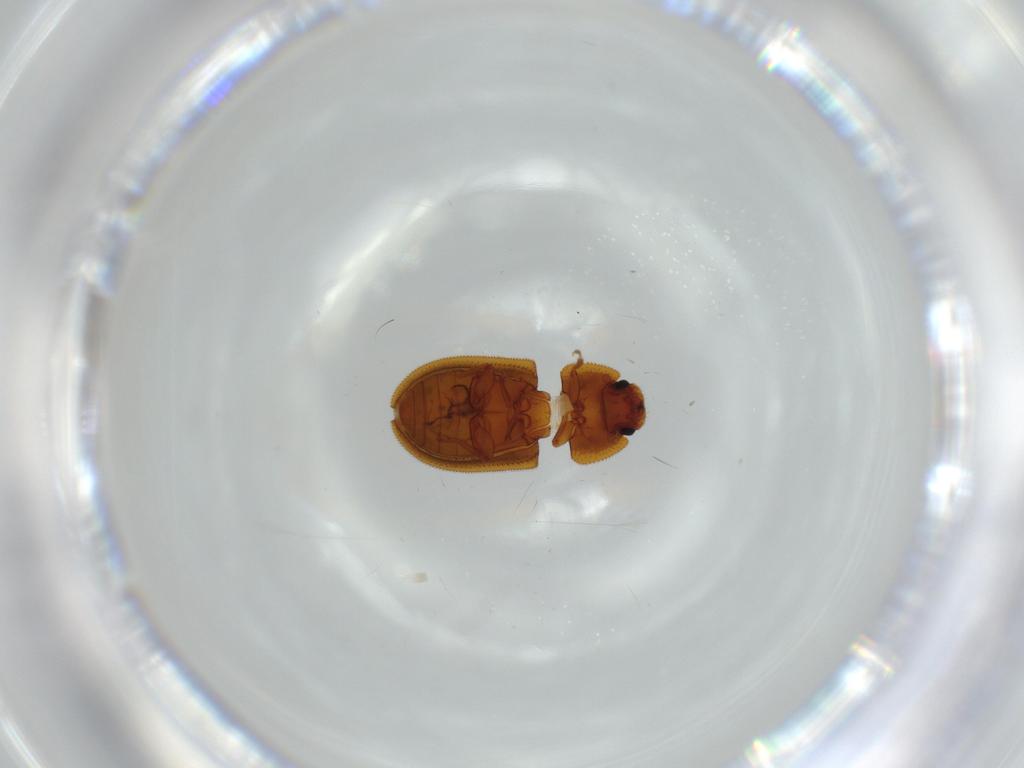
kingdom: Animalia
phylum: Arthropoda
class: Insecta
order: Coleoptera
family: Zopheridae
